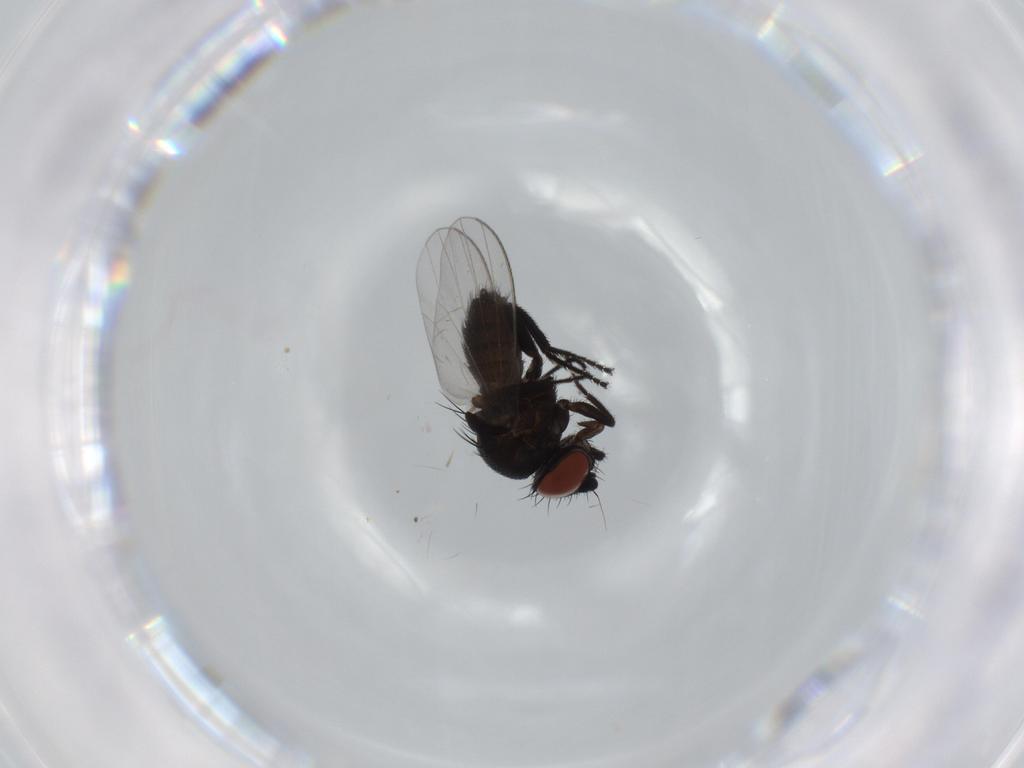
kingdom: Animalia
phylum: Arthropoda
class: Insecta
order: Diptera
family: Milichiidae
